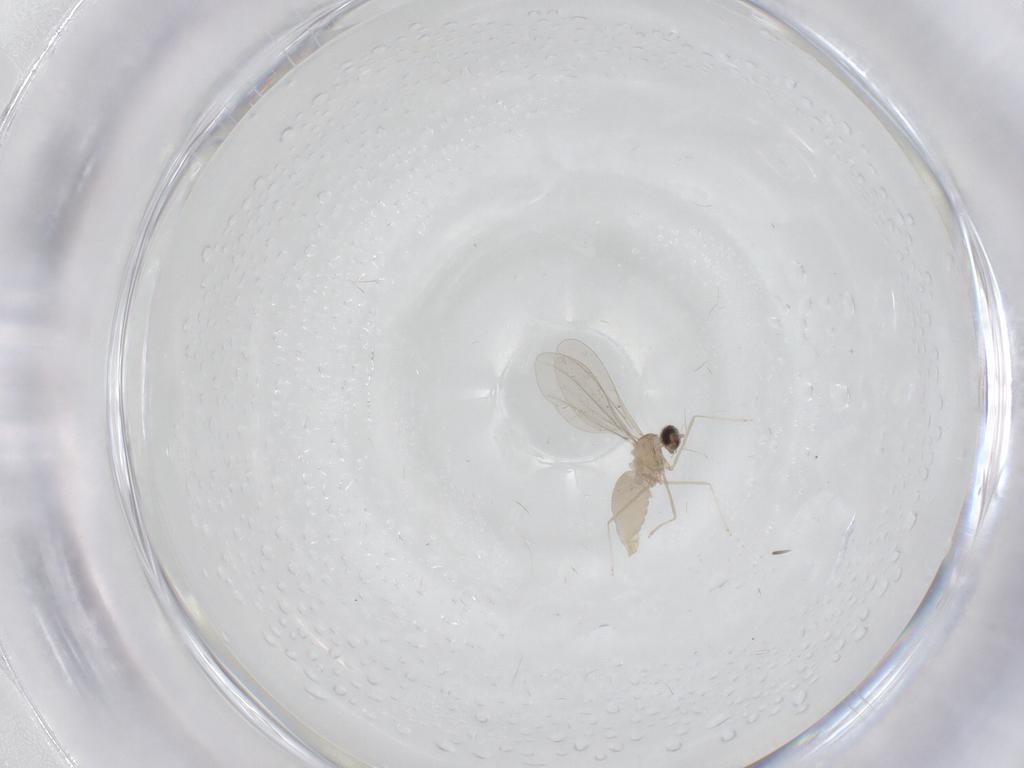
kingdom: Animalia
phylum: Arthropoda
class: Insecta
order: Diptera
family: Cecidomyiidae
